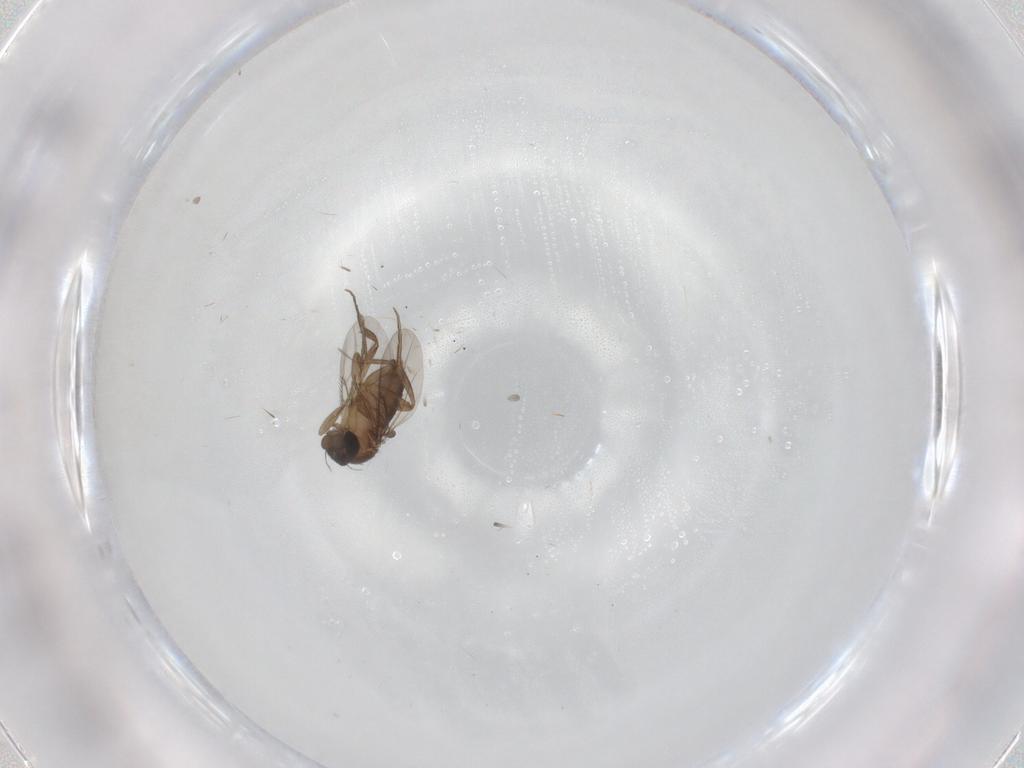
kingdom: Animalia
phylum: Arthropoda
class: Insecta
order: Diptera
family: Phoridae
